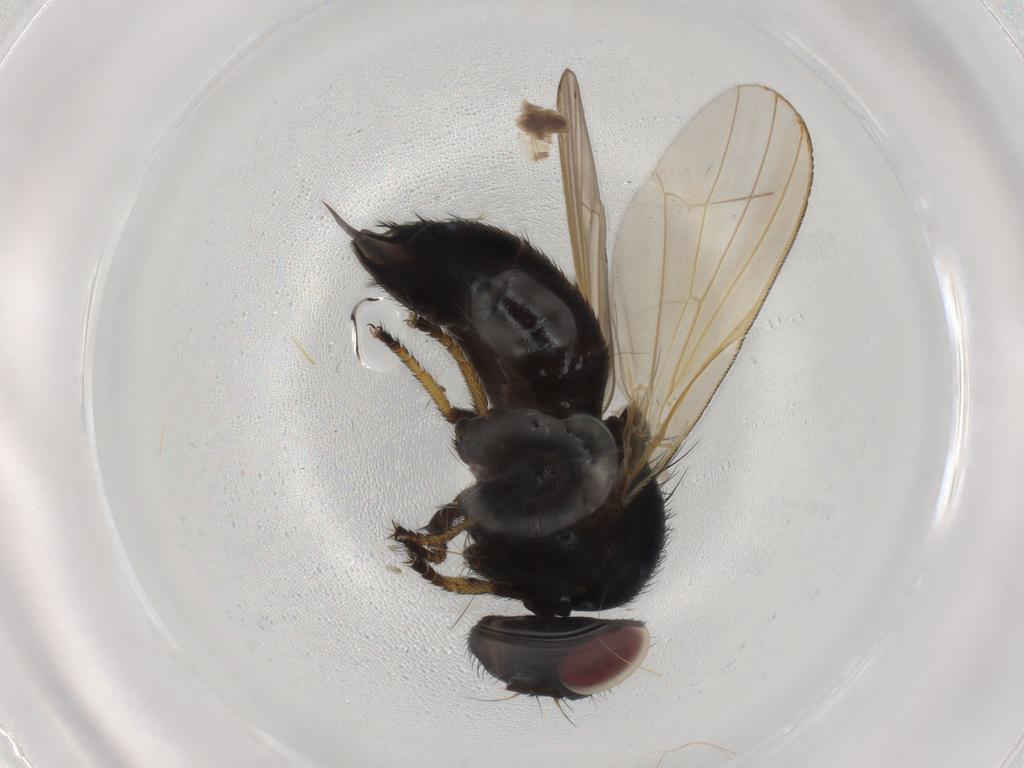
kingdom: Animalia
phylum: Arthropoda
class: Insecta
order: Diptera
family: Lonchaeidae
